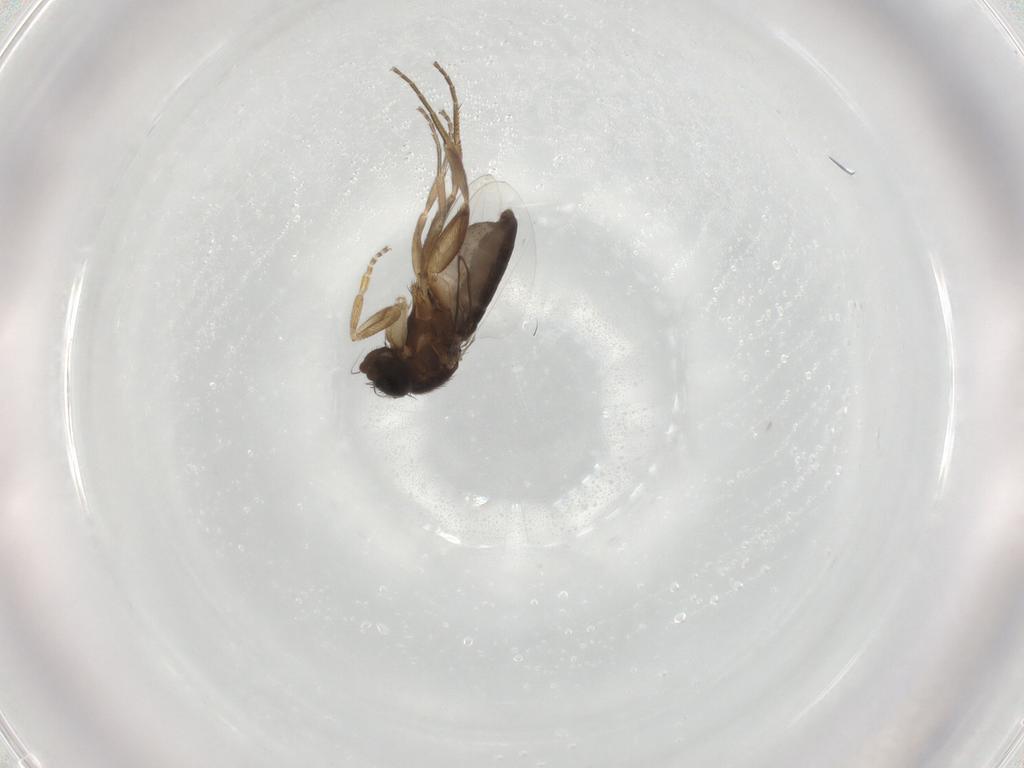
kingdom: Animalia
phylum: Arthropoda
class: Insecta
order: Diptera
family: Phoridae
